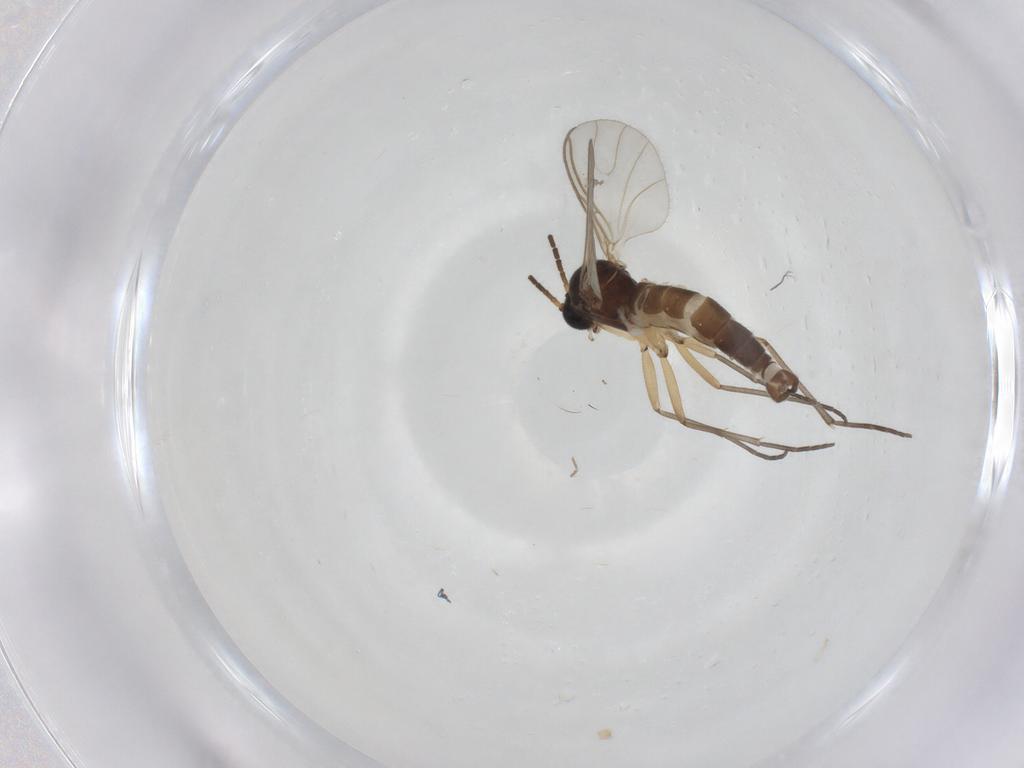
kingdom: Animalia
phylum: Arthropoda
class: Insecta
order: Diptera
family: Sciaridae
